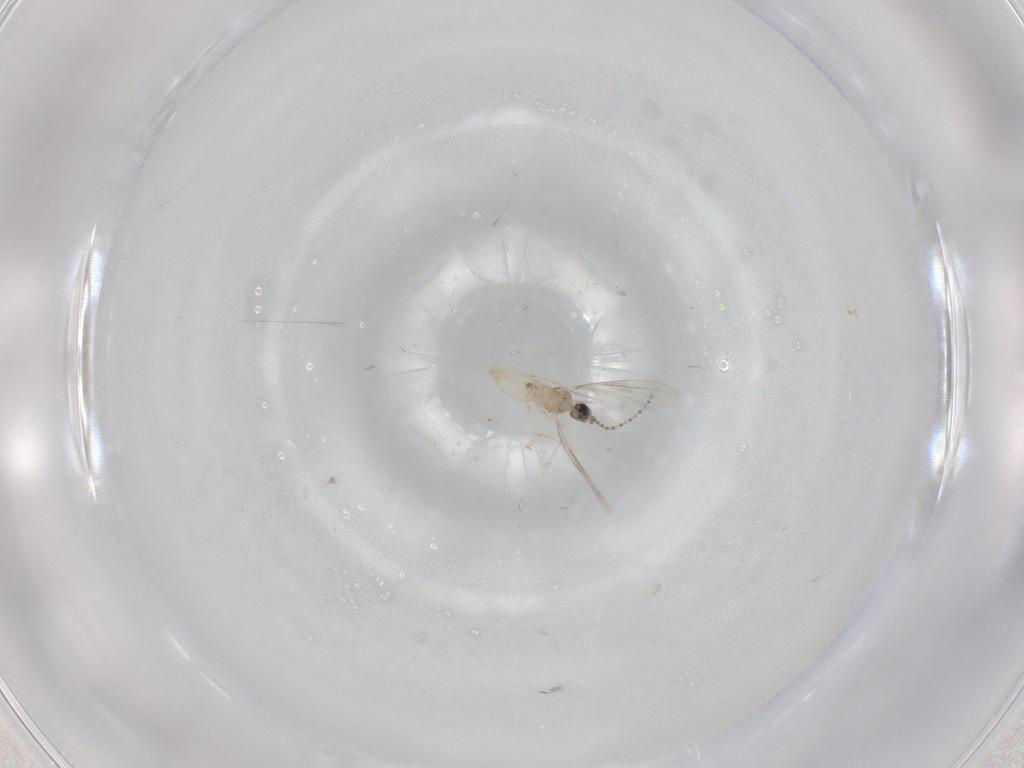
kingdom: Animalia
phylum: Arthropoda
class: Insecta
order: Diptera
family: Cecidomyiidae
